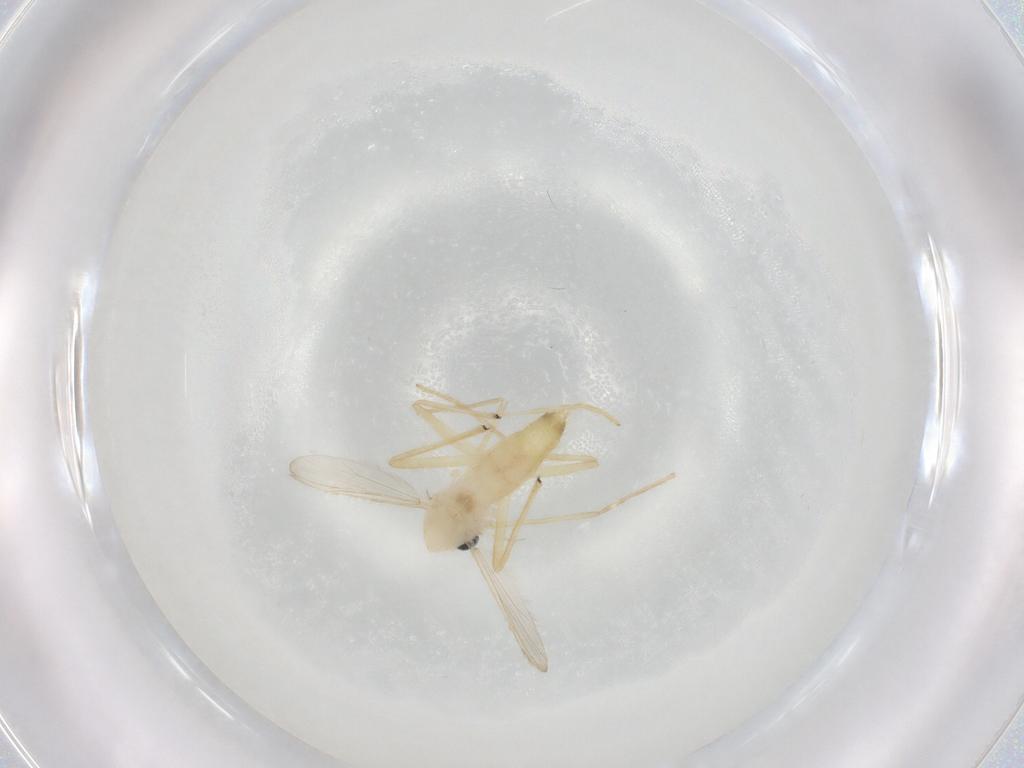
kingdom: Animalia
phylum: Arthropoda
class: Insecta
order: Diptera
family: Chironomidae
